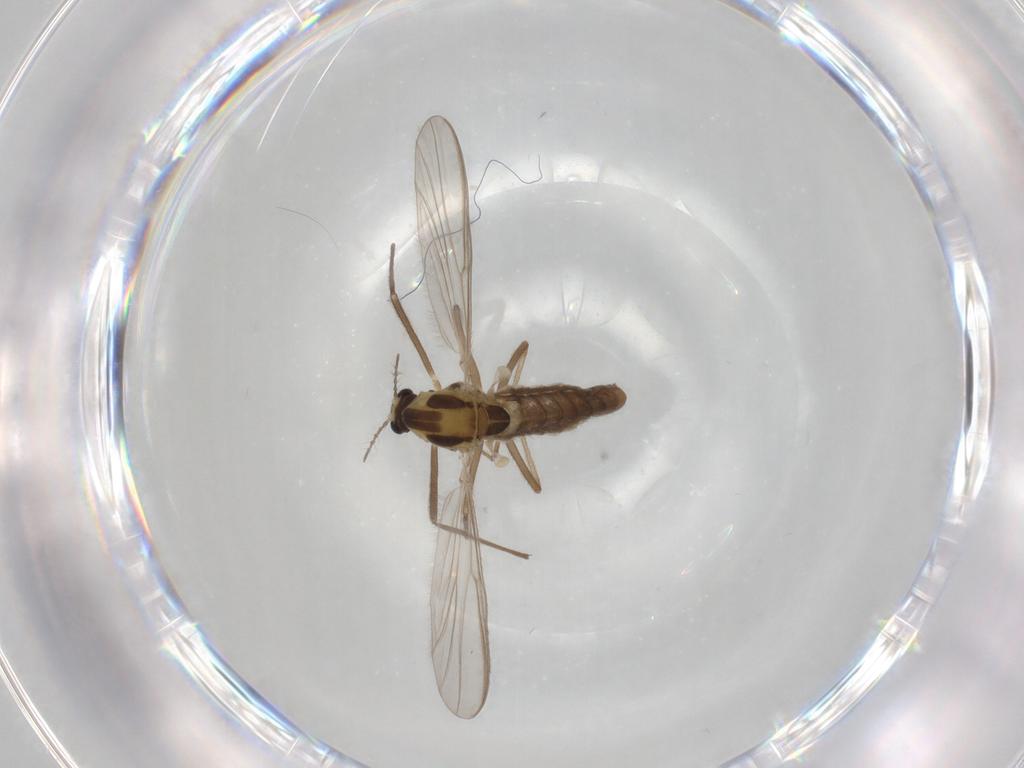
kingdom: Animalia
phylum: Arthropoda
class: Insecta
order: Diptera
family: Chironomidae
